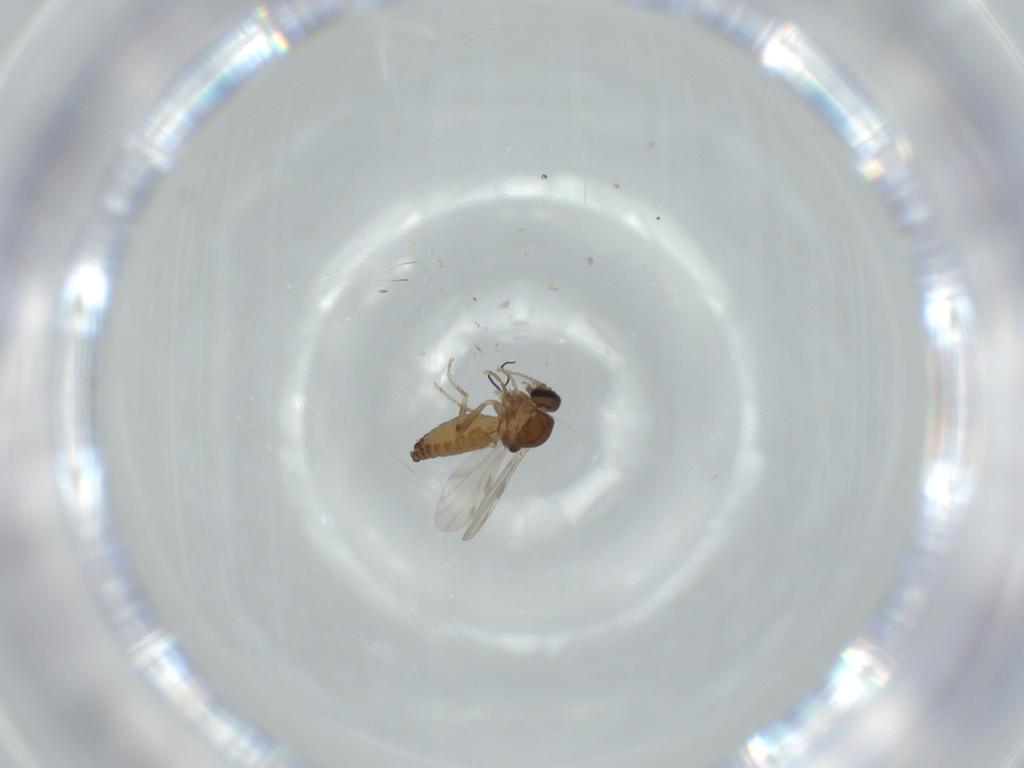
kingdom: Animalia
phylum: Arthropoda
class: Insecta
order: Diptera
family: Ceratopogonidae
